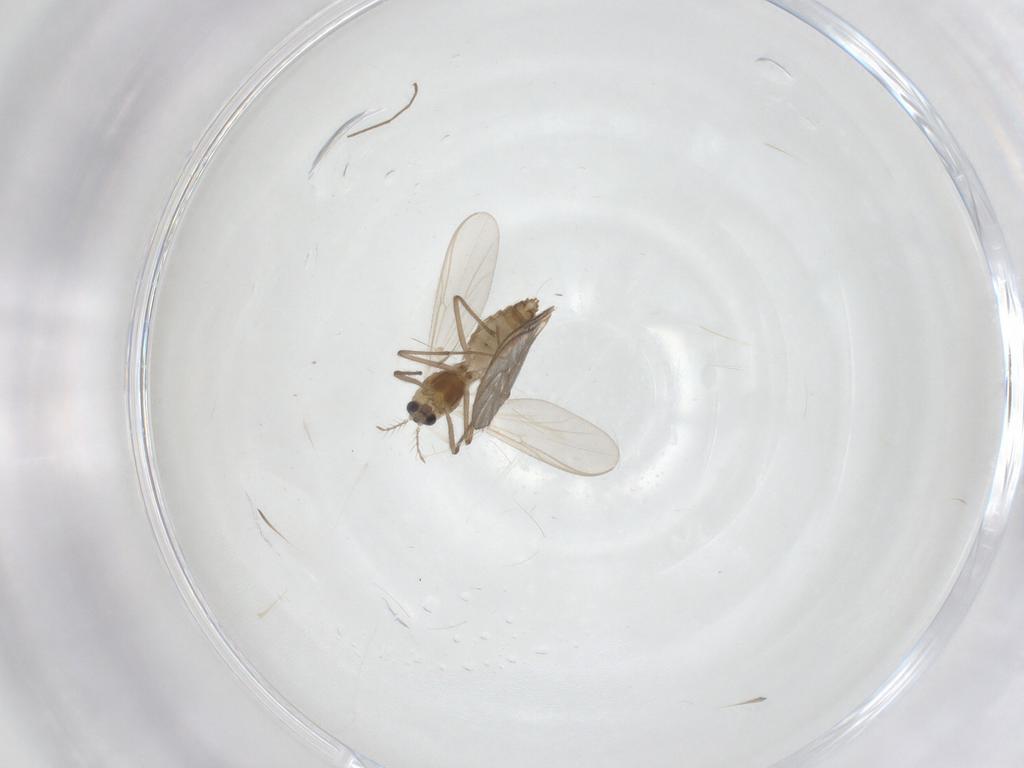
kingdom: Animalia
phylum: Arthropoda
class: Insecta
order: Diptera
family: Chironomidae
